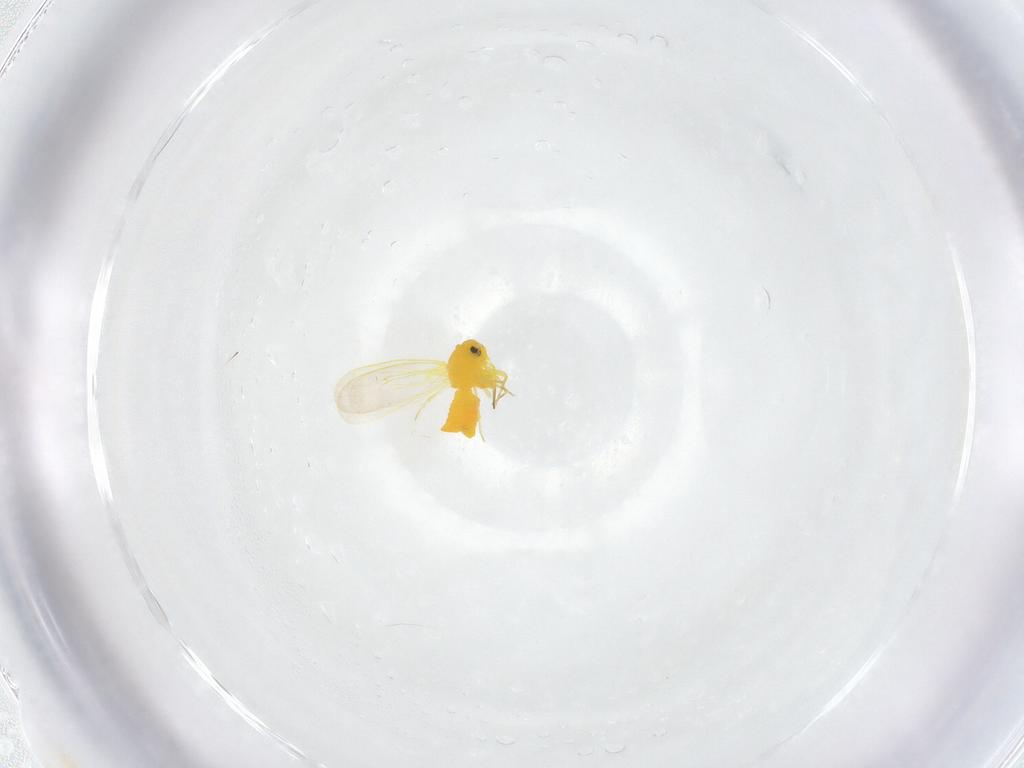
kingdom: Animalia
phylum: Arthropoda
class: Insecta
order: Hemiptera
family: Aleyrodidae
